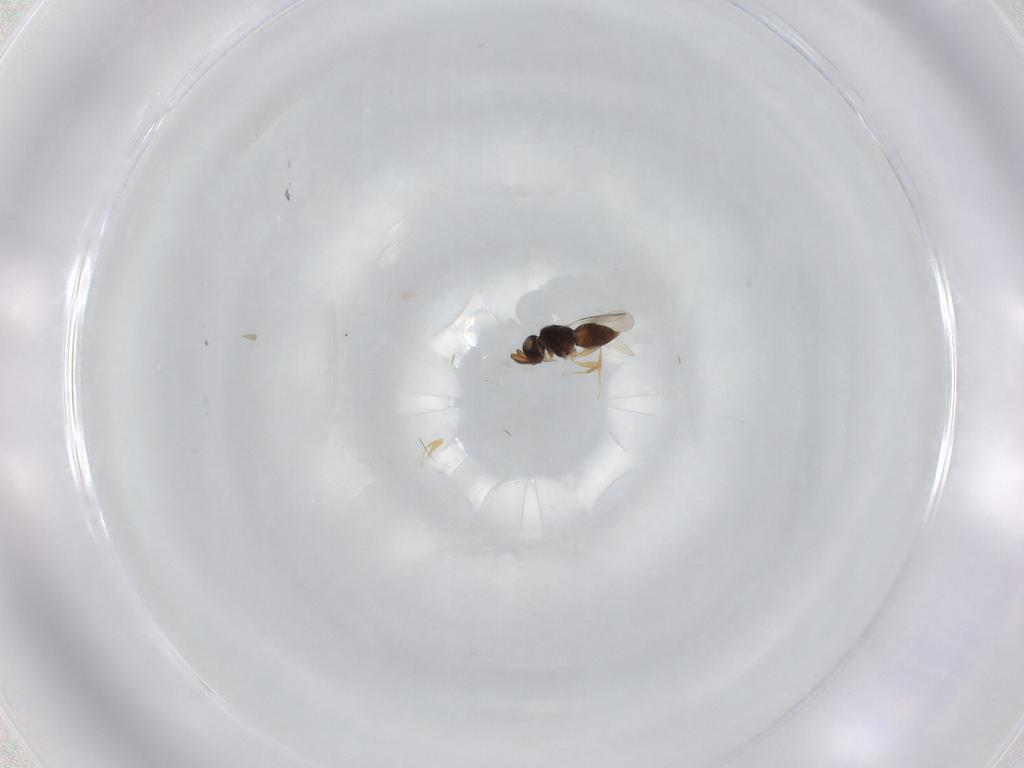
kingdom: Animalia
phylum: Arthropoda
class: Insecta
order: Hymenoptera
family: Ichneumonidae
